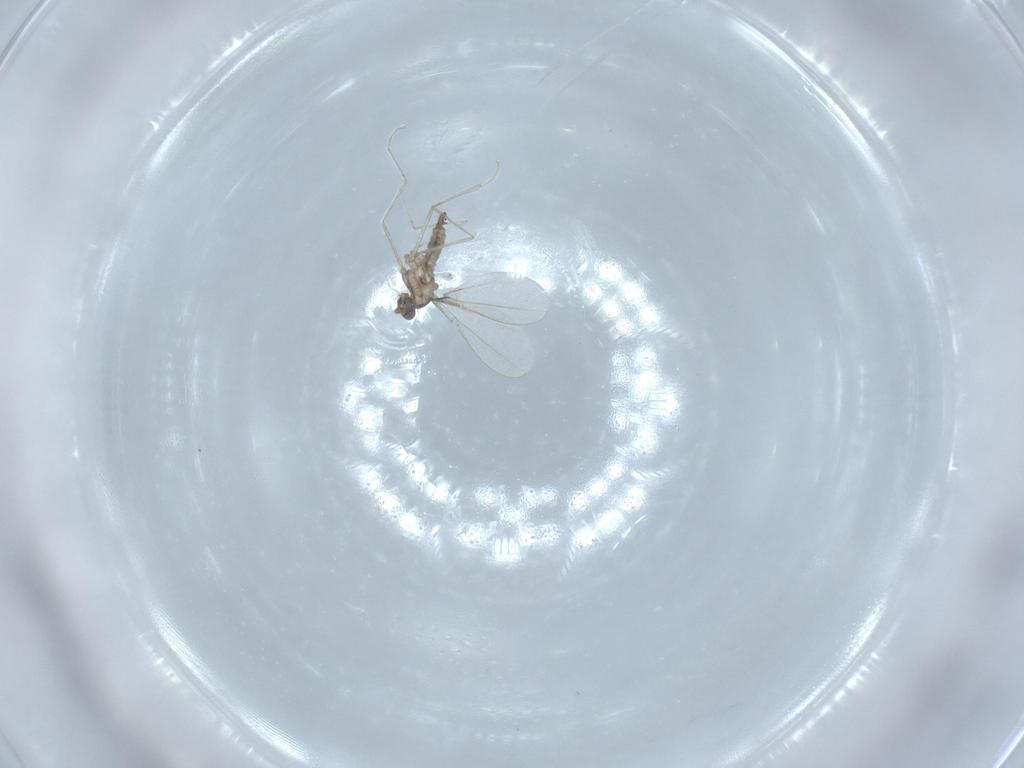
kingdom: Animalia
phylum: Arthropoda
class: Insecta
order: Diptera
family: Cecidomyiidae
